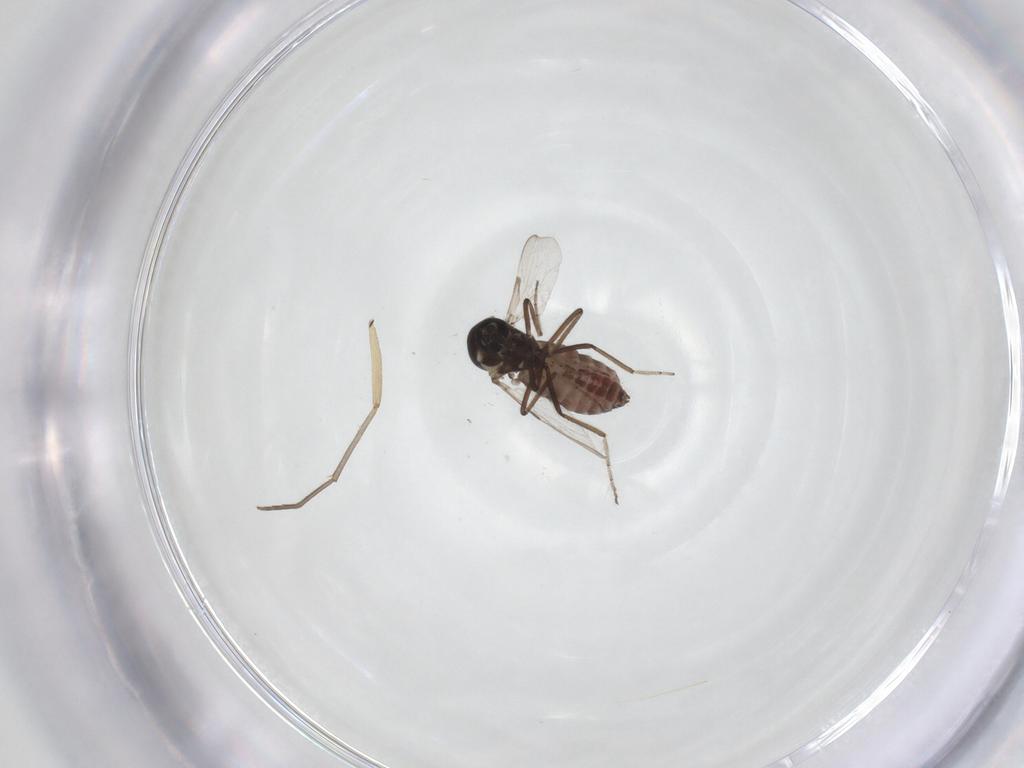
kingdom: Animalia
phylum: Arthropoda
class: Insecta
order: Diptera
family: Ceratopogonidae
